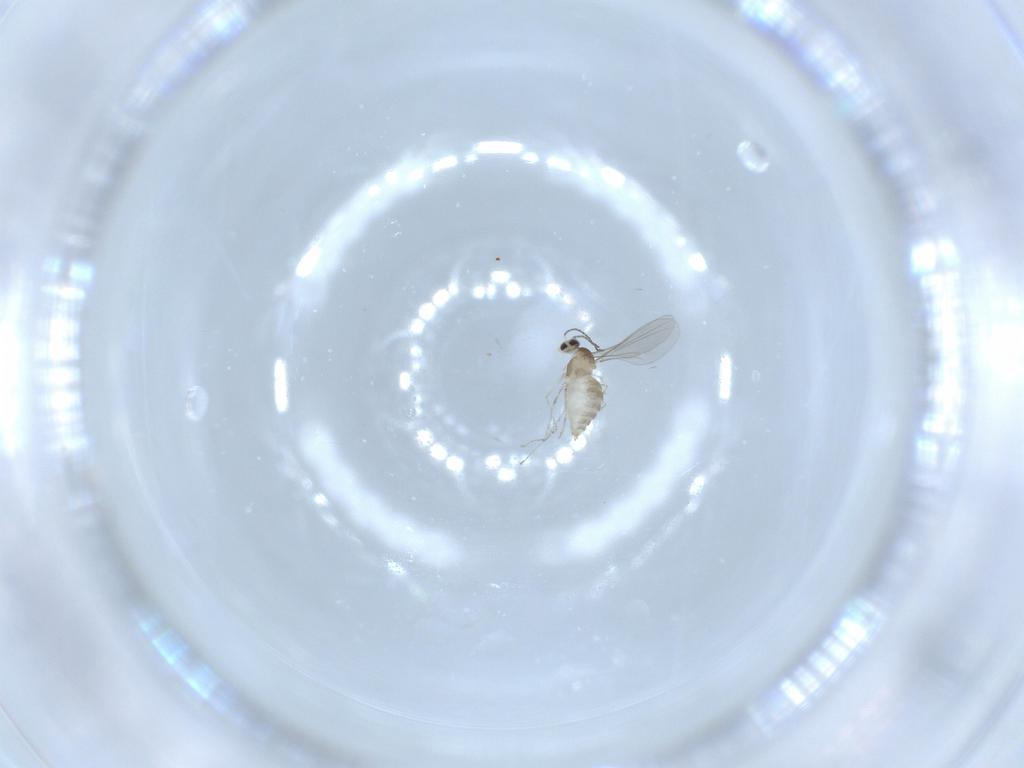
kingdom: Animalia
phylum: Arthropoda
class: Insecta
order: Diptera
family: Cecidomyiidae
